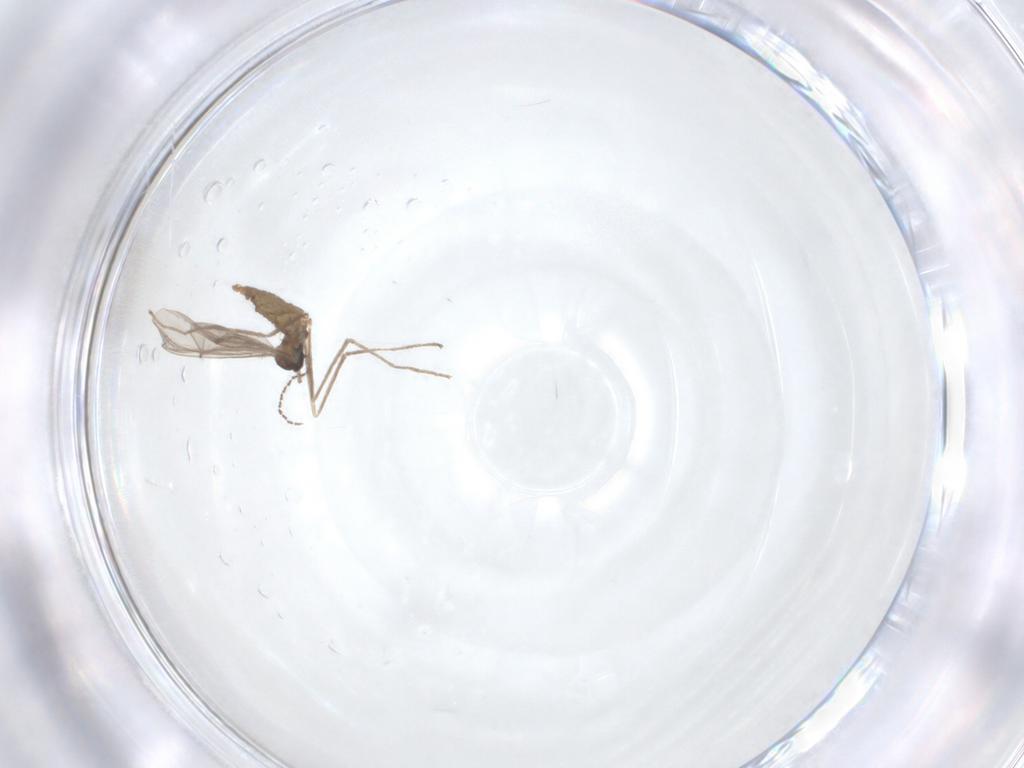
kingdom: Animalia
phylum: Arthropoda
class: Insecta
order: Diptera
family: Cecidomyiidae
